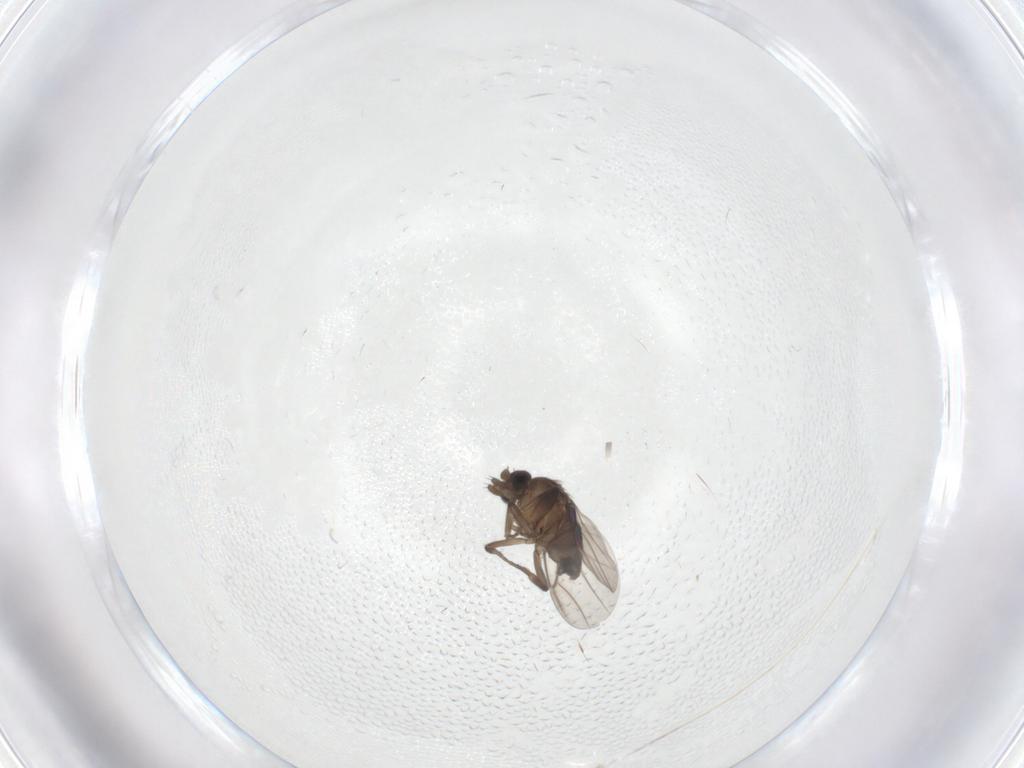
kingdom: Animalia
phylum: Arthropoda
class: Insecta
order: Diptera
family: Phoridae
